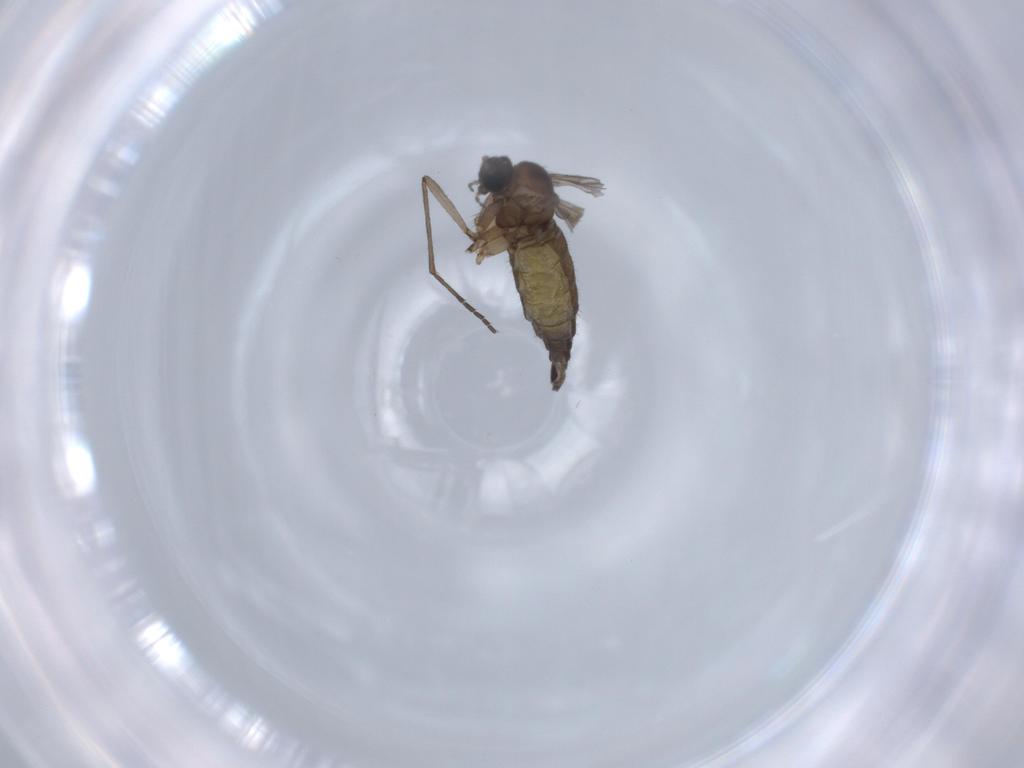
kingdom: Animalia
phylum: Arthropoda
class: Insecta
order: Diptera
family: Sciaridae
